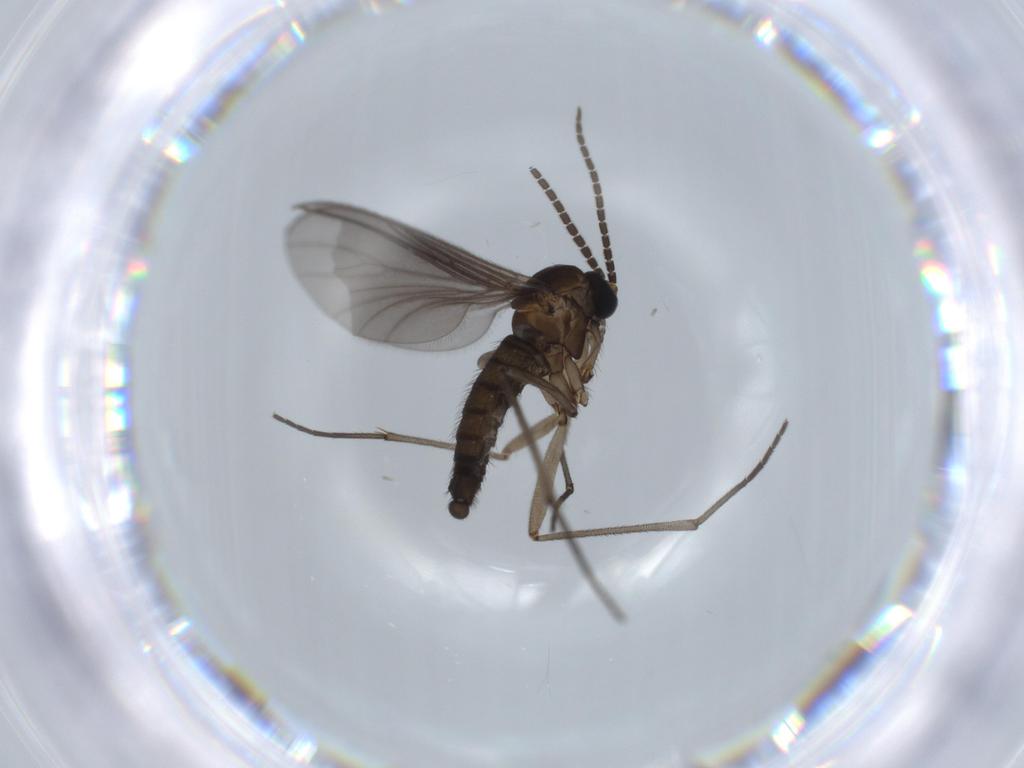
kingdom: Animalia
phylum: Arthropoda
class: Insecta
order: Diptera
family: Sciaridae
